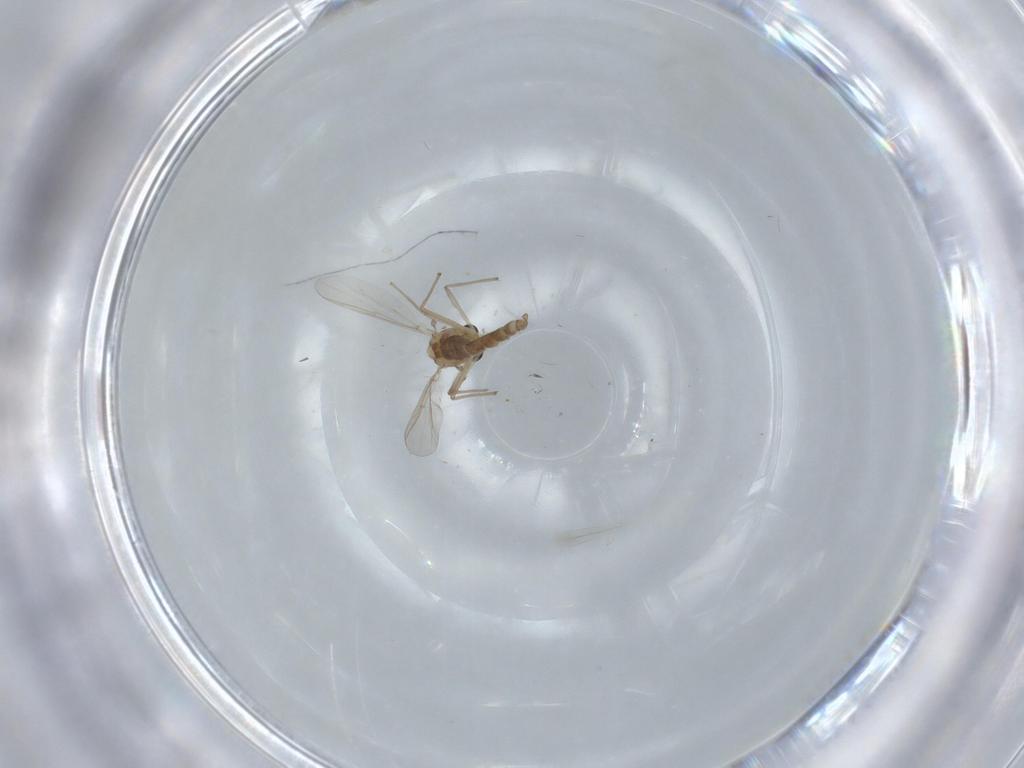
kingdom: Animalia
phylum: Arthropoda
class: Insecta
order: Diptera
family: Chironomidae
